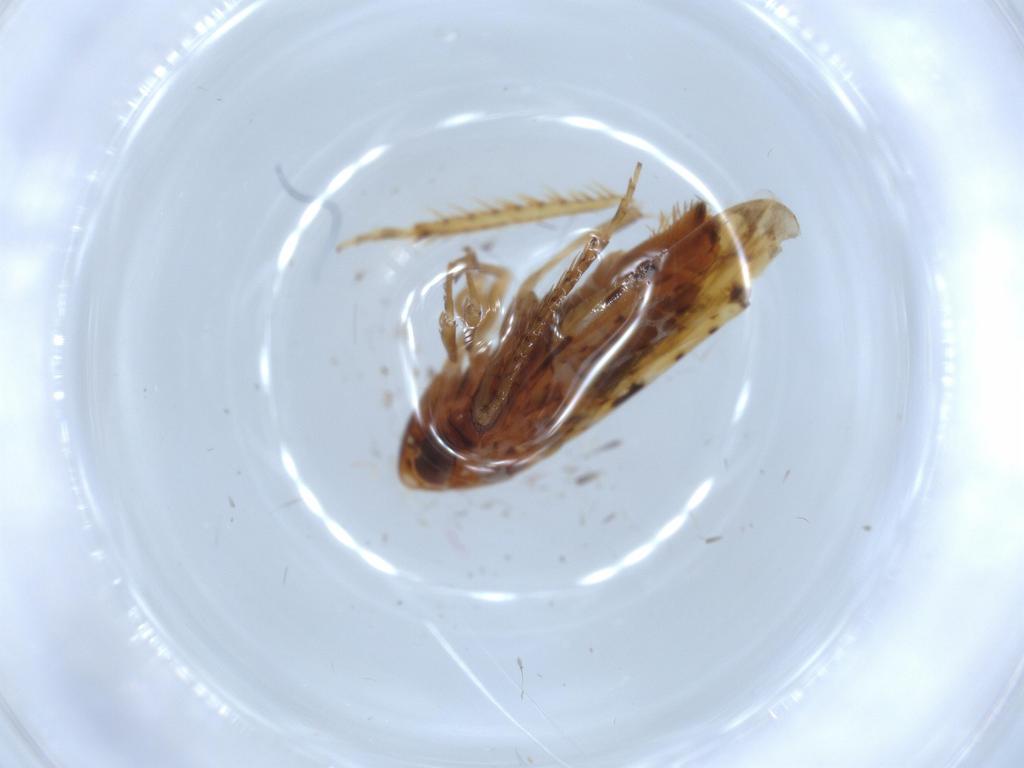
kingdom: Animalia
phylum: Arthropoda
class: Insecta
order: Hemiptera
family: Cicadellidae
